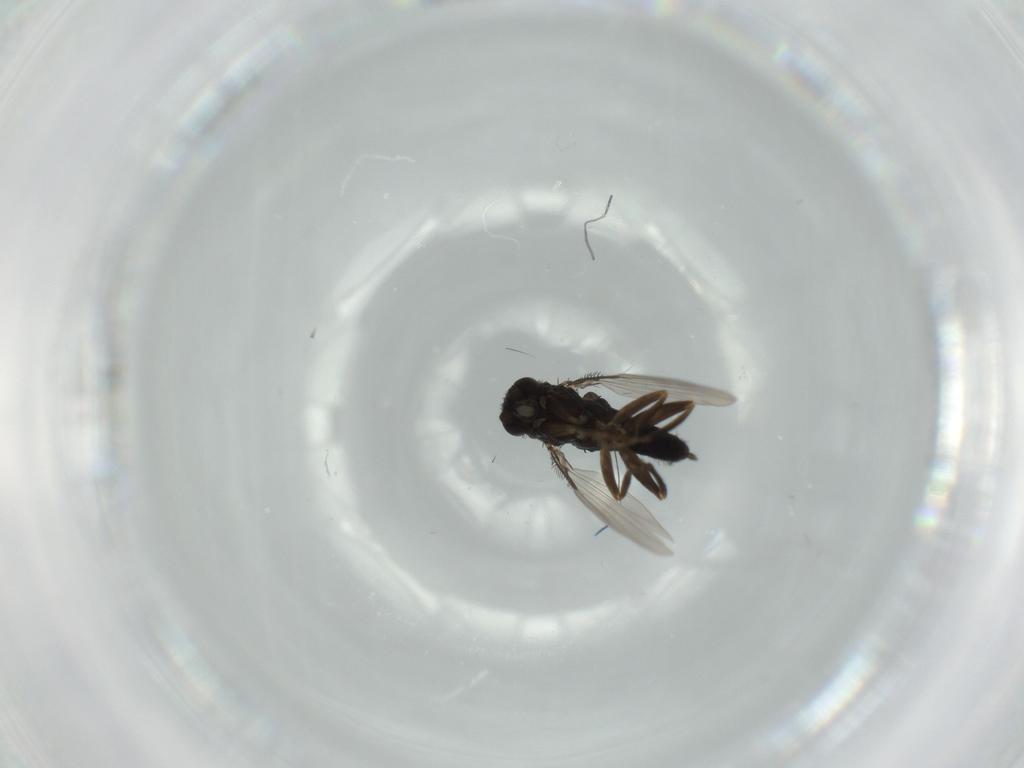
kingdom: Animalia
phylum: Arthropoda
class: Insecta
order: Diptera
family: Phoridae
